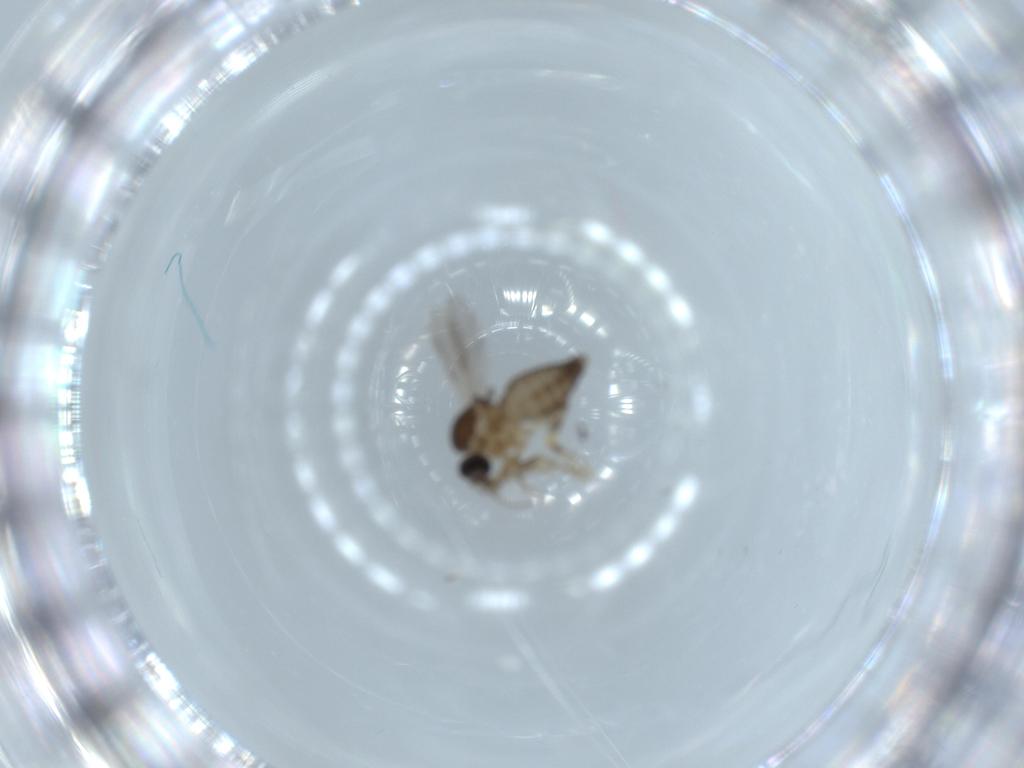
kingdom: Animalia
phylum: Arthropoda
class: Insecta
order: Diptera
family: Ceratopogonidae
